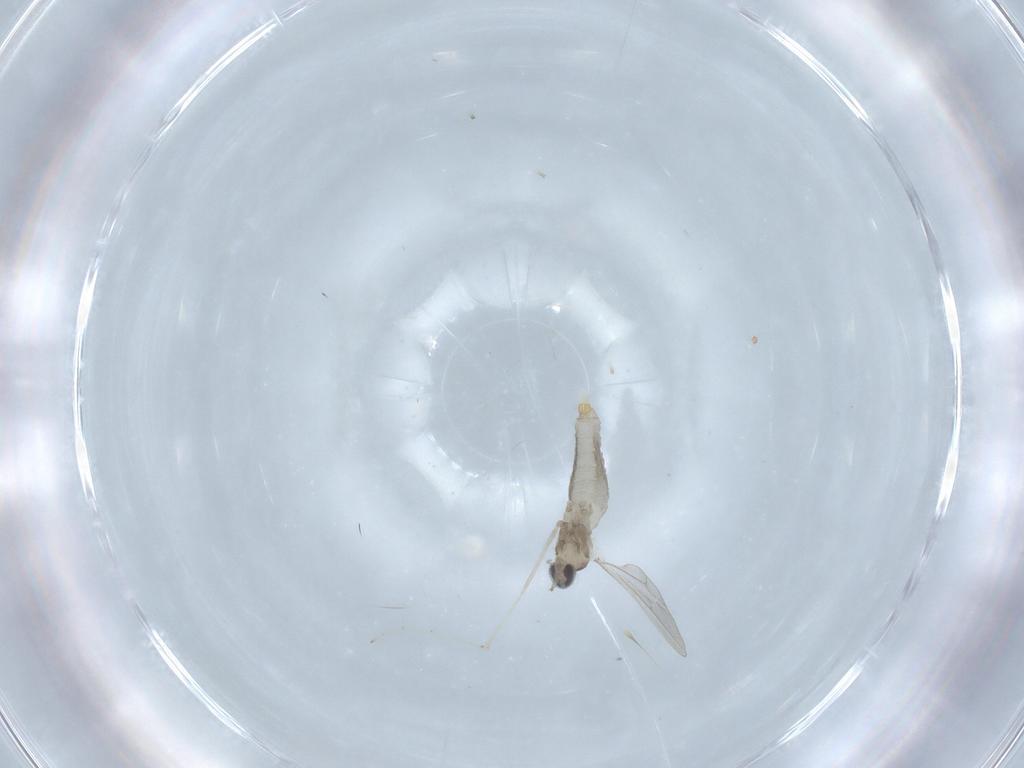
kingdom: Animalia
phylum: Arthropoda
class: Insecta
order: Diptera
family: Cecidomyiidae
